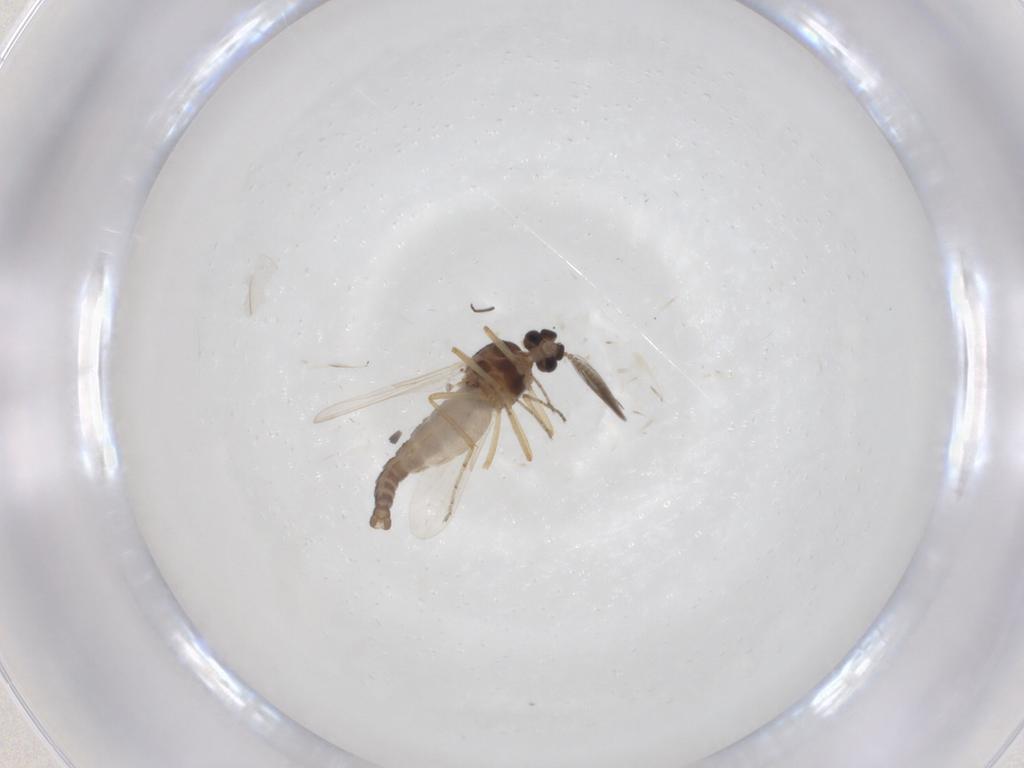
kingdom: Animalia
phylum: Arthropoda
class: Insecta
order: Diptera
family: Ceratopogonidae
